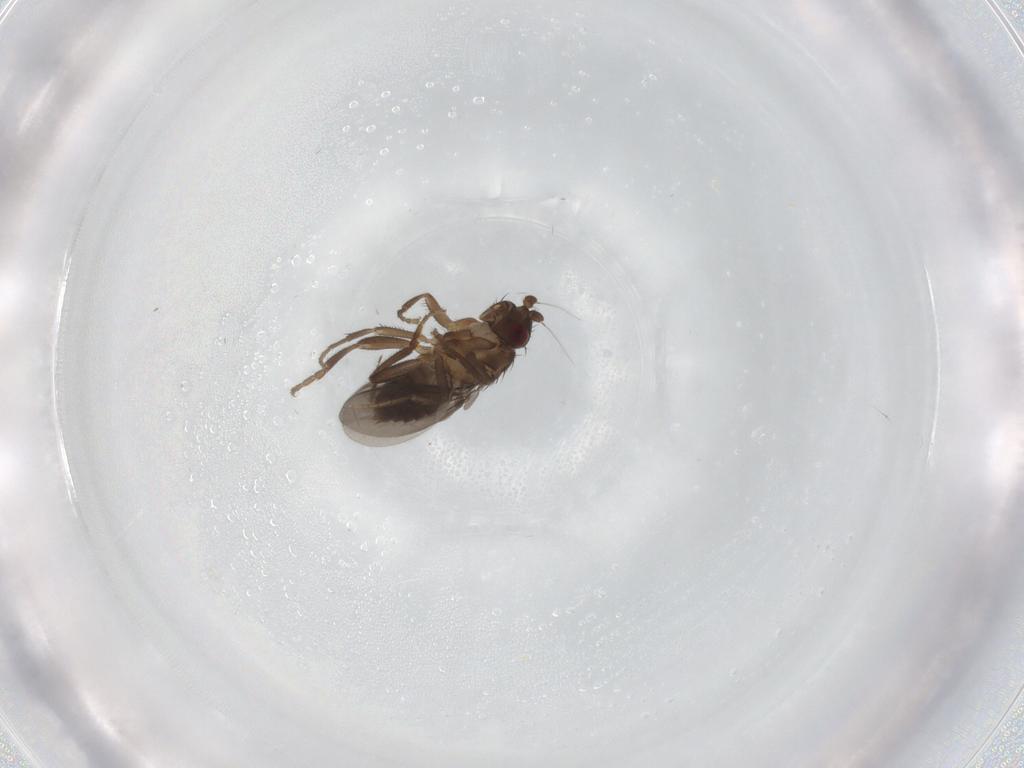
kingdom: Animalia
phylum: Arthropoda
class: Insecta
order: Diptera
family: Sphaeroceridae
